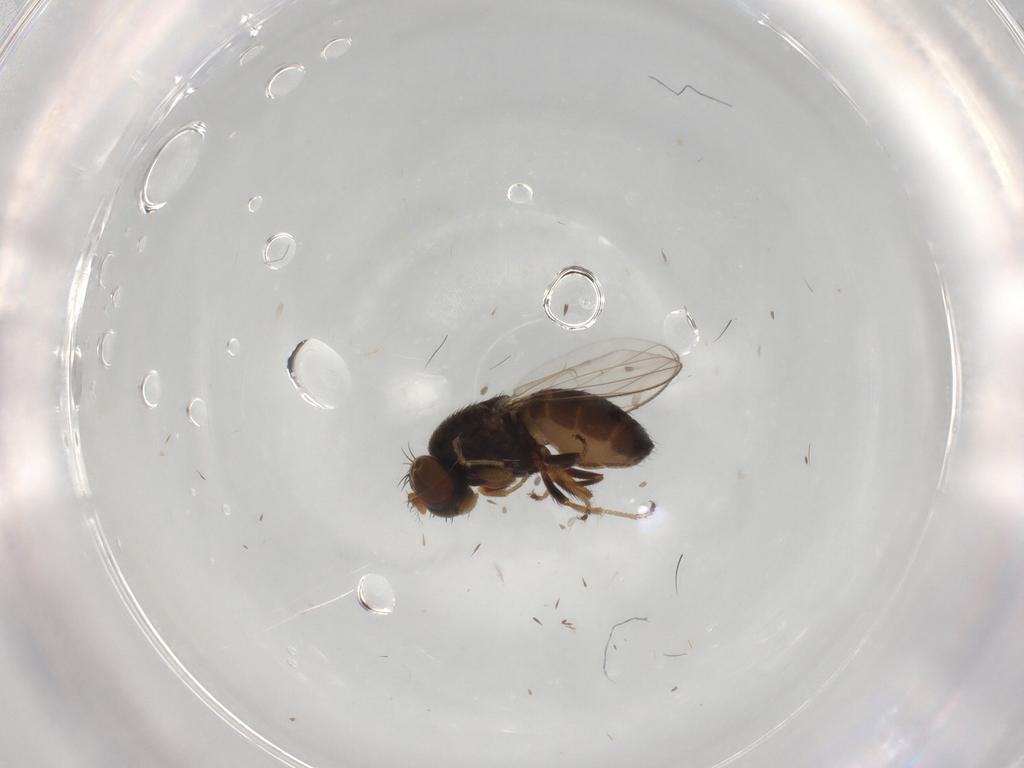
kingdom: Animalia
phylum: Arthropoda
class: Insecta
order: Diptera
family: Ephydridae
